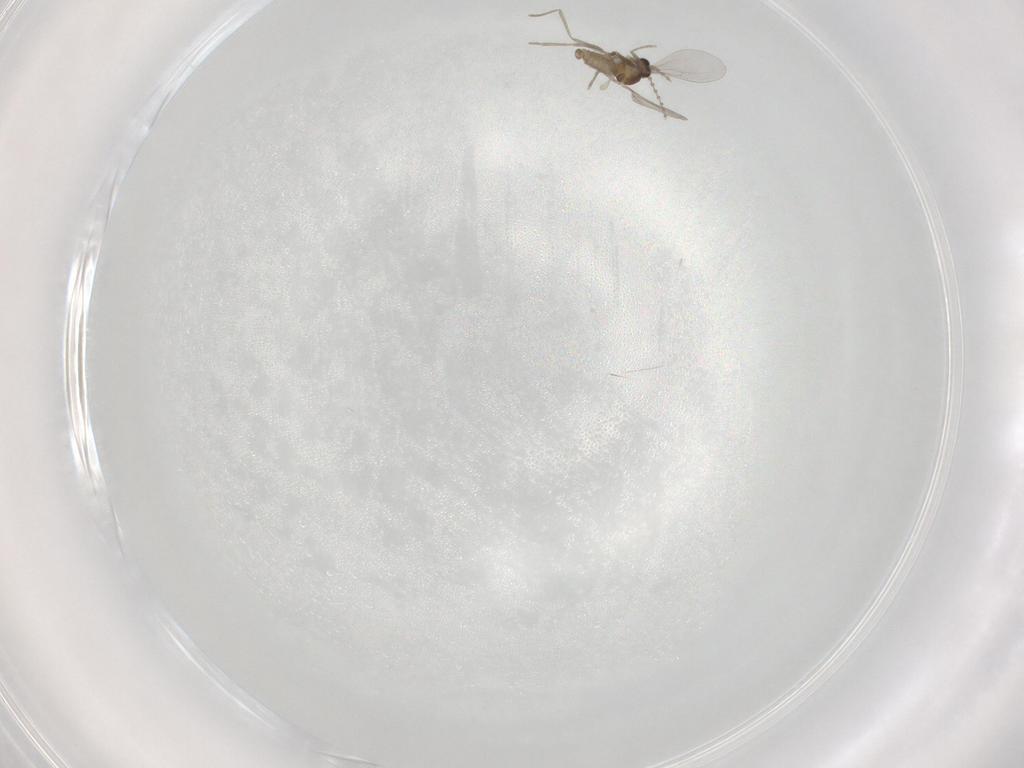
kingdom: Animalia
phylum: Arthropoda
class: Insecta
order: Diptera
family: Cecidomyiidae
